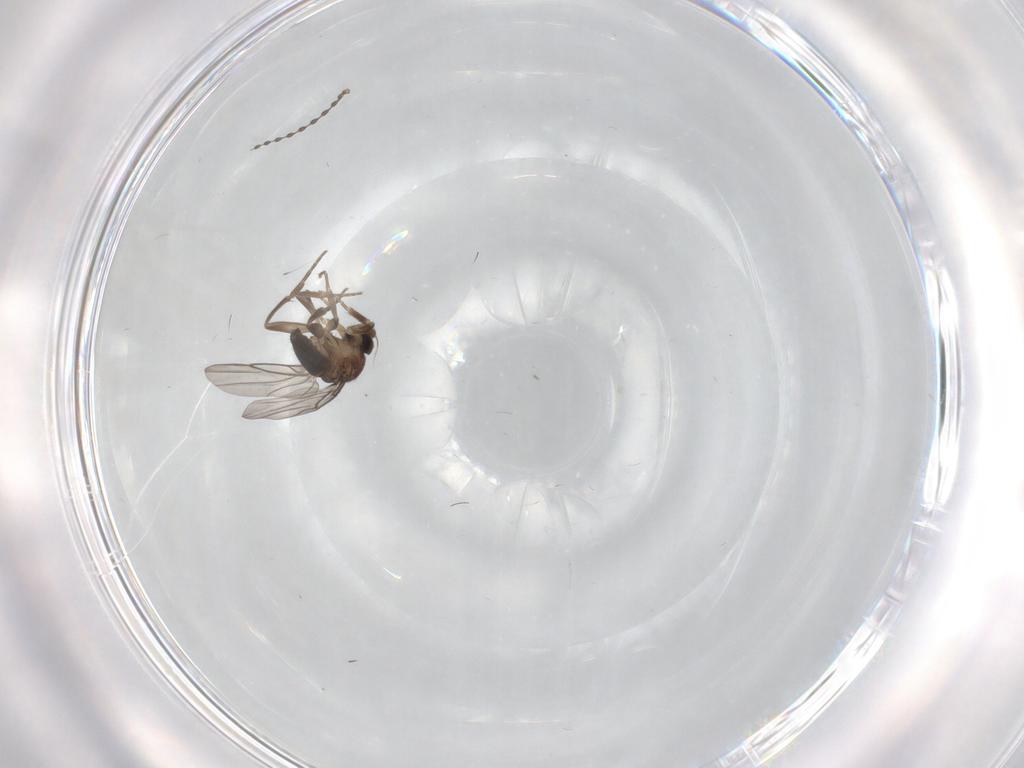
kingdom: Animalia
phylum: Arthropoda
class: Insecta
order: Diptera
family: Phoridae
